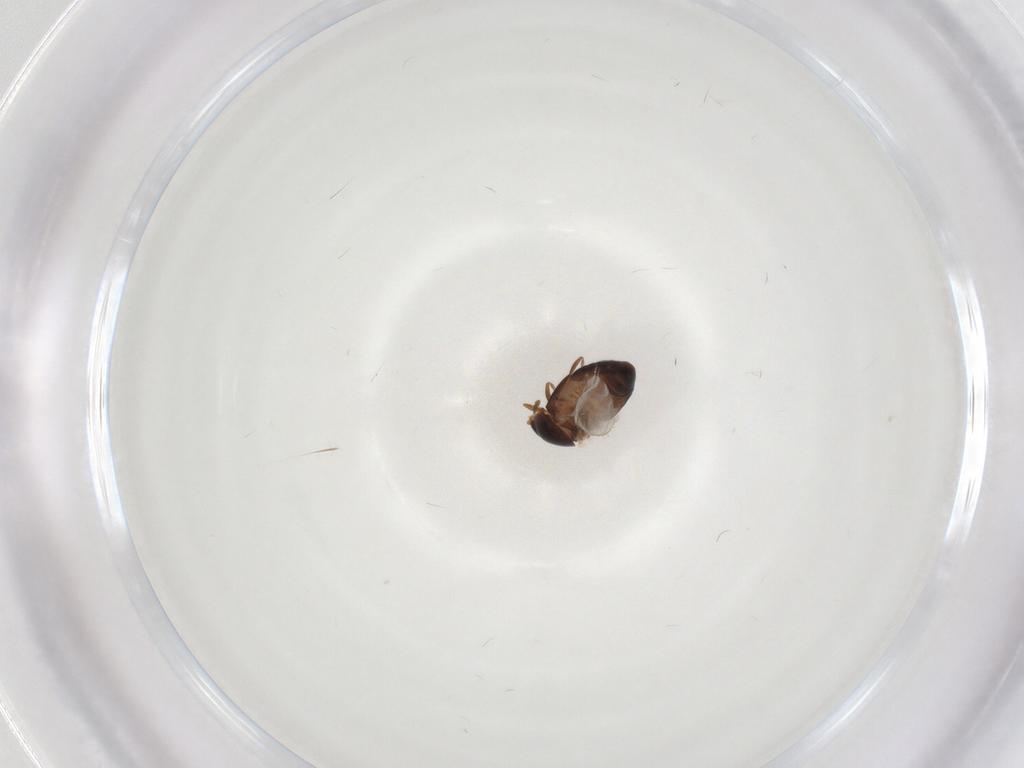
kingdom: Animalia
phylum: Arthropoda
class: Insecta
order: Coleoptera
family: Corylophidae
